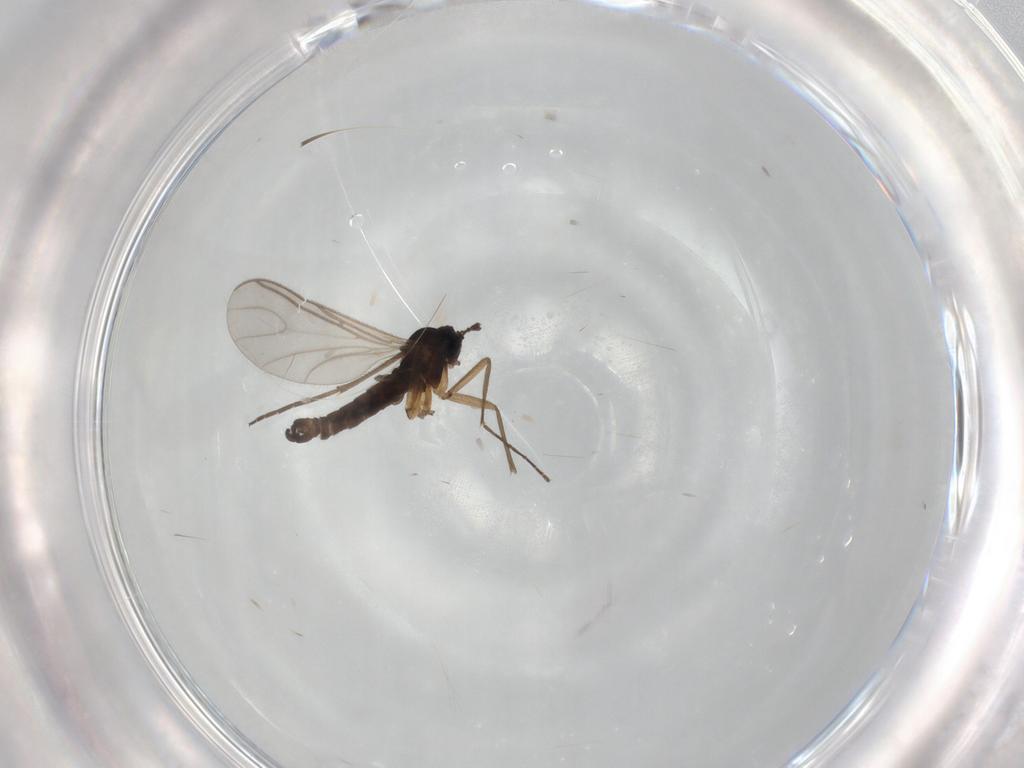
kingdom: Animalia
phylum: Arthropoda
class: Insecta
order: Diptera
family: Sciaridae
